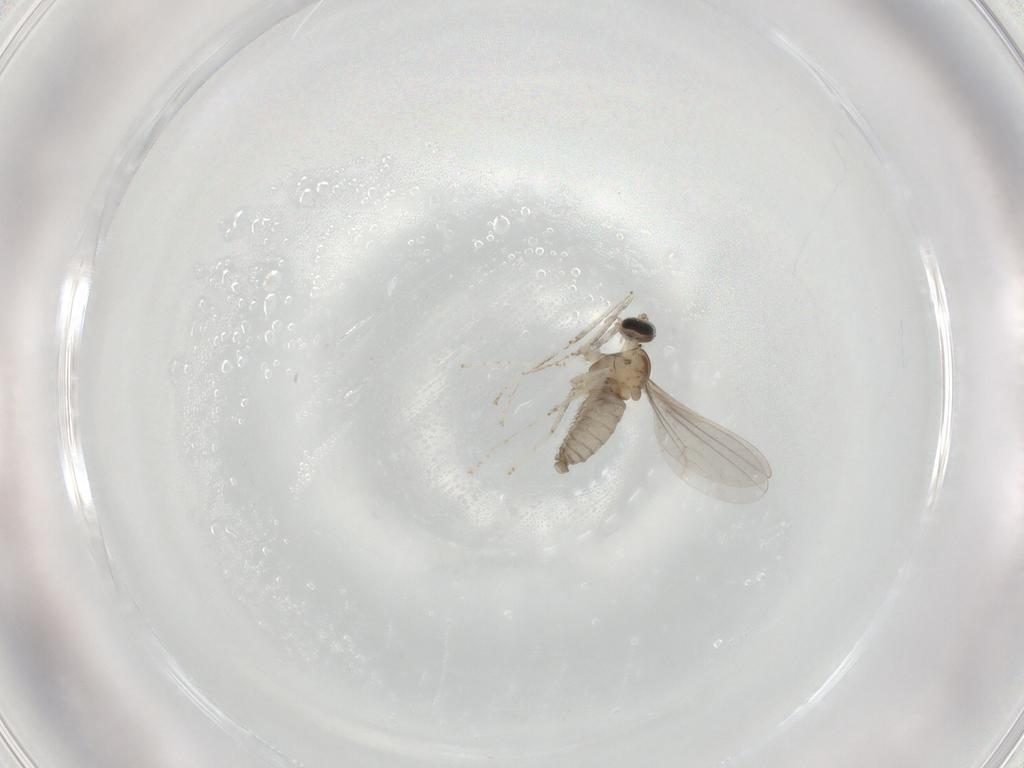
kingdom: Animalia
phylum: Arthropoda
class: Insecta
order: Diptera
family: Cecidomyiidae
